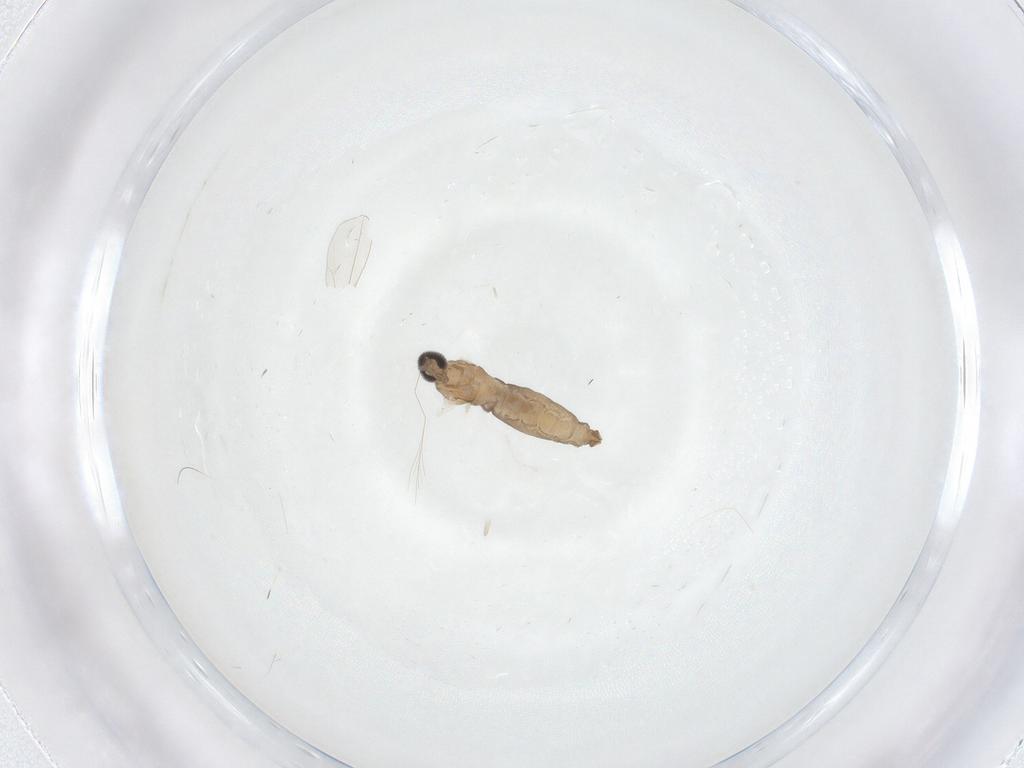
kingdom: Animalia
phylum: Arthropoda
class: Insecta
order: Diptera
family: Cecidomyiidae
